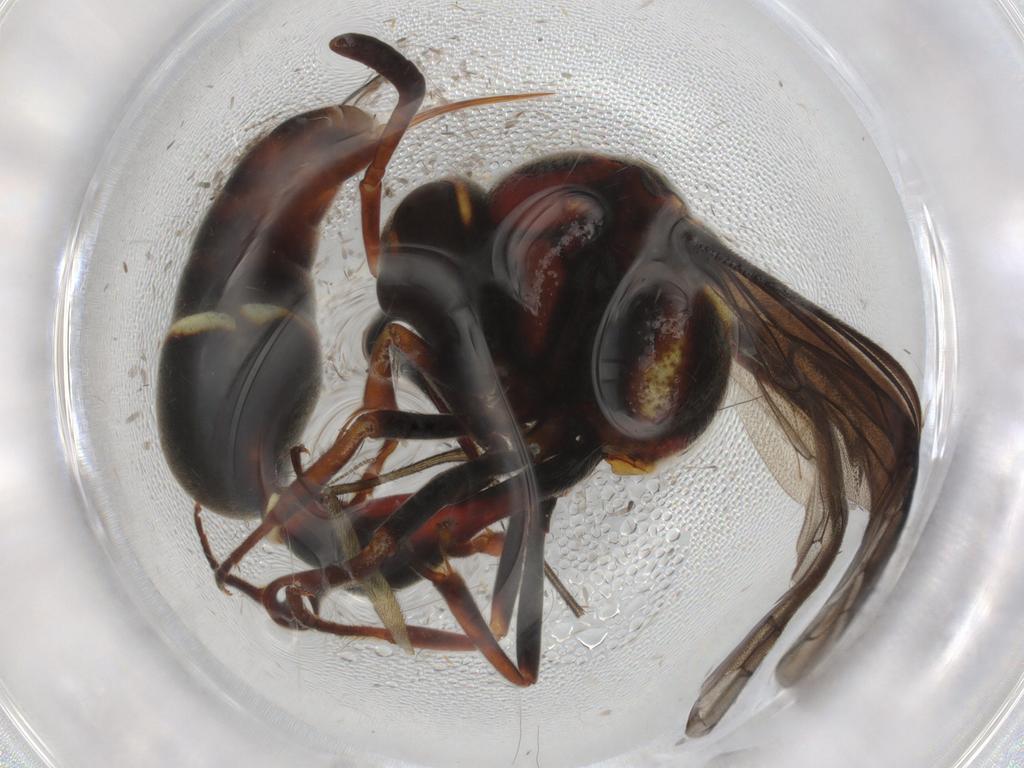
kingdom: Animalia
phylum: Arthropoda
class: Insecta
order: Hymenoptera
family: Vespidae
